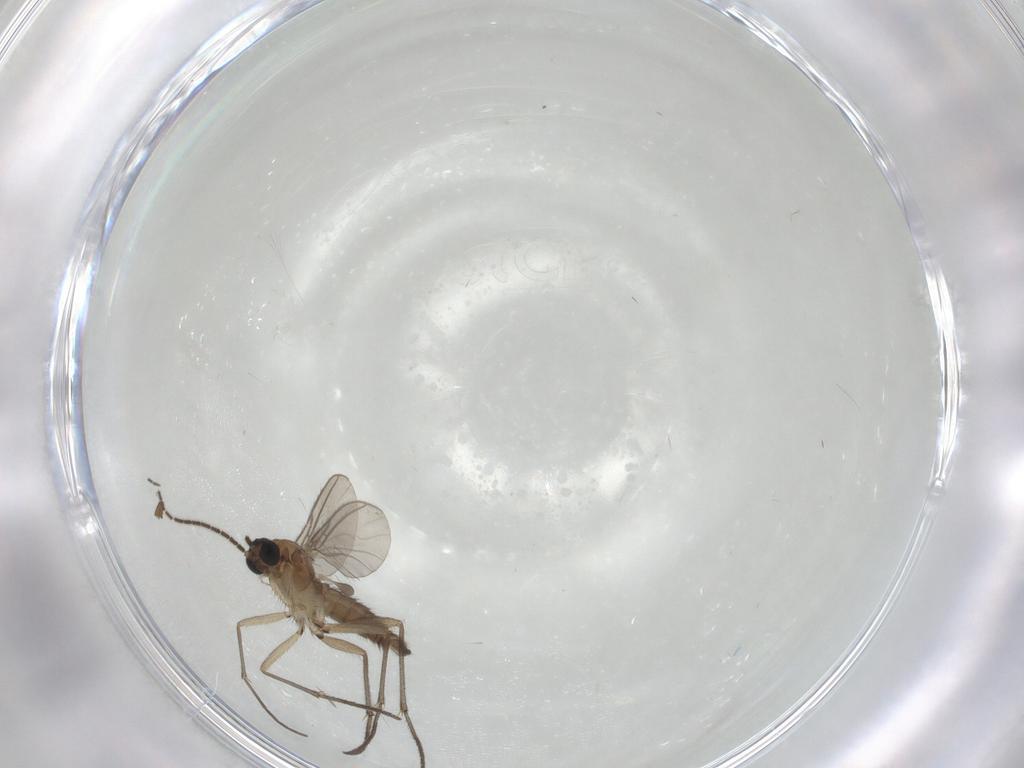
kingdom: Animalia
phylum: Arthropoda
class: Insecta
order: Diptera
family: Sciaridae
